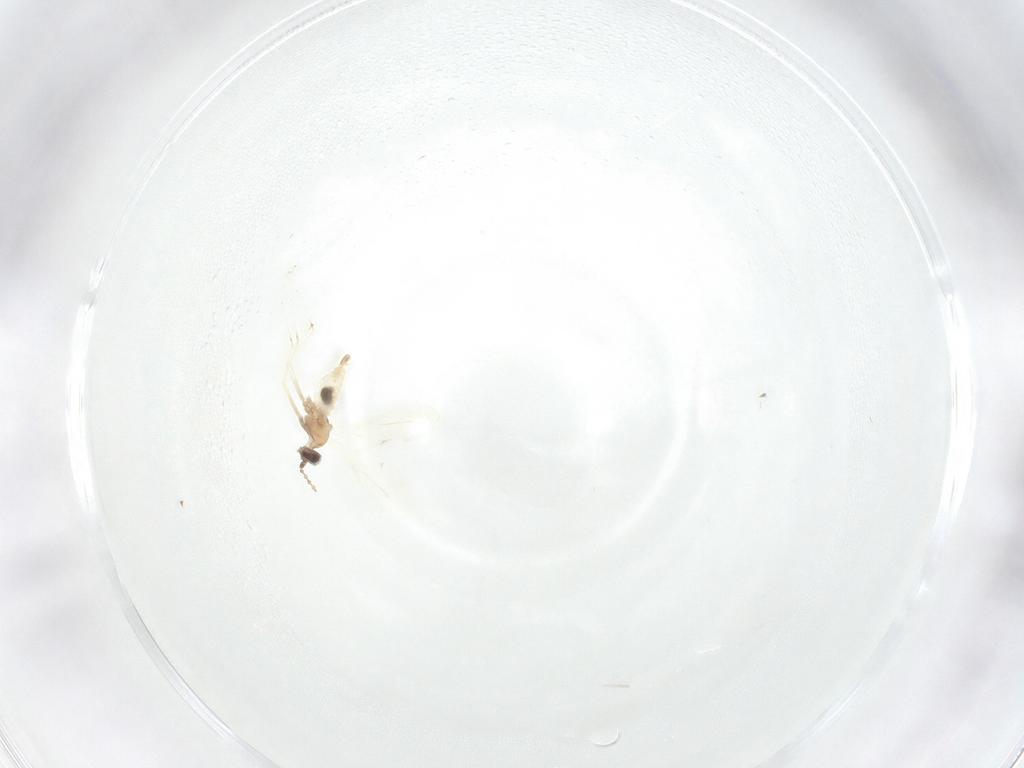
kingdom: Animalia
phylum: Arthropoda
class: Insecta
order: Diptera
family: Cecidomyiidae
